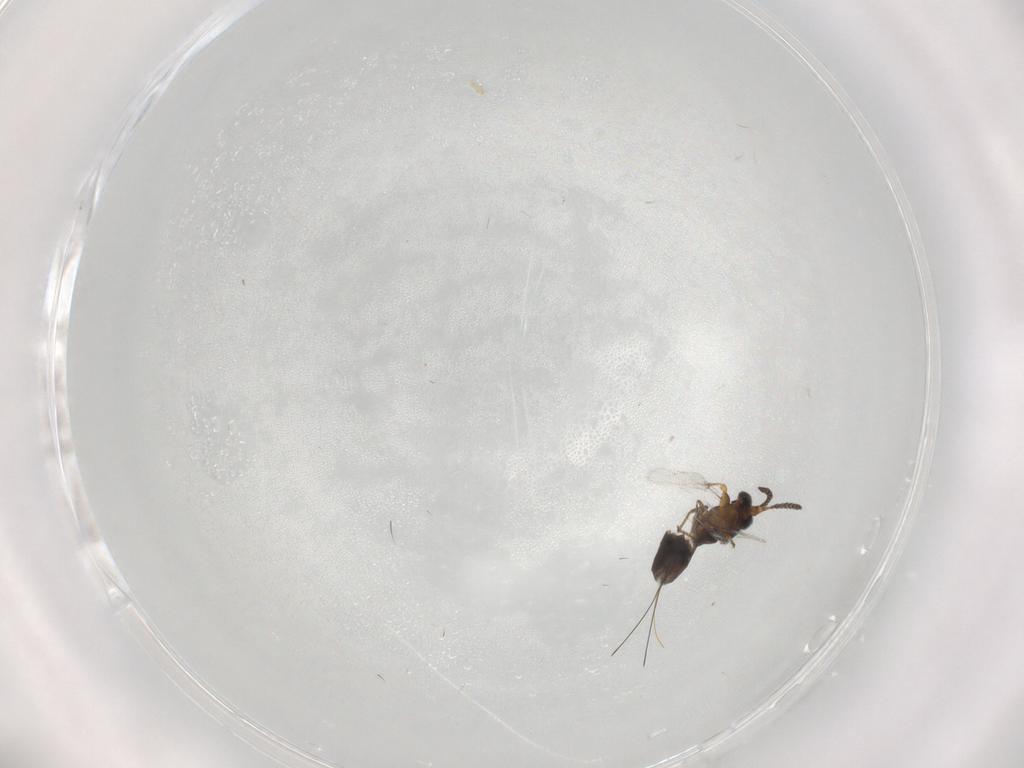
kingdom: Animalia
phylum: Arthropoda
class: Insecta
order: Hymenoptera
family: Agaonidae
